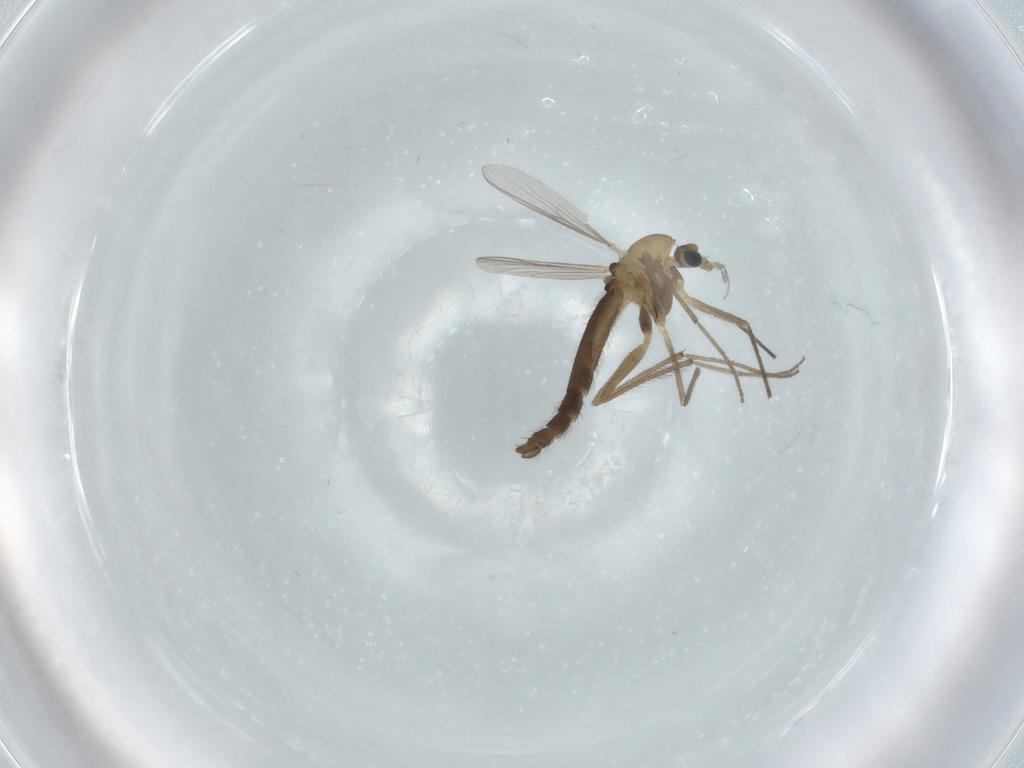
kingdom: Animalia
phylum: Arthropoda
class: Insecta
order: Diptera
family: Chironomidae
